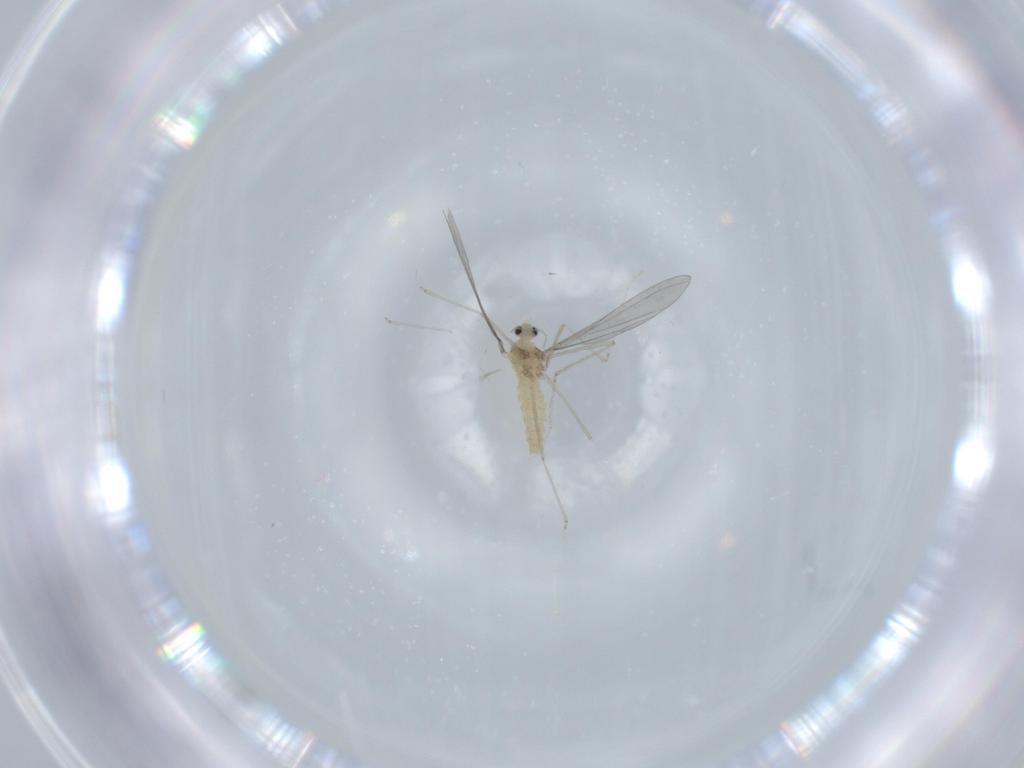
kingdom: Animalia
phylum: Arthropoda
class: Insecta
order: Diptera
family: Cecidomyiidae
